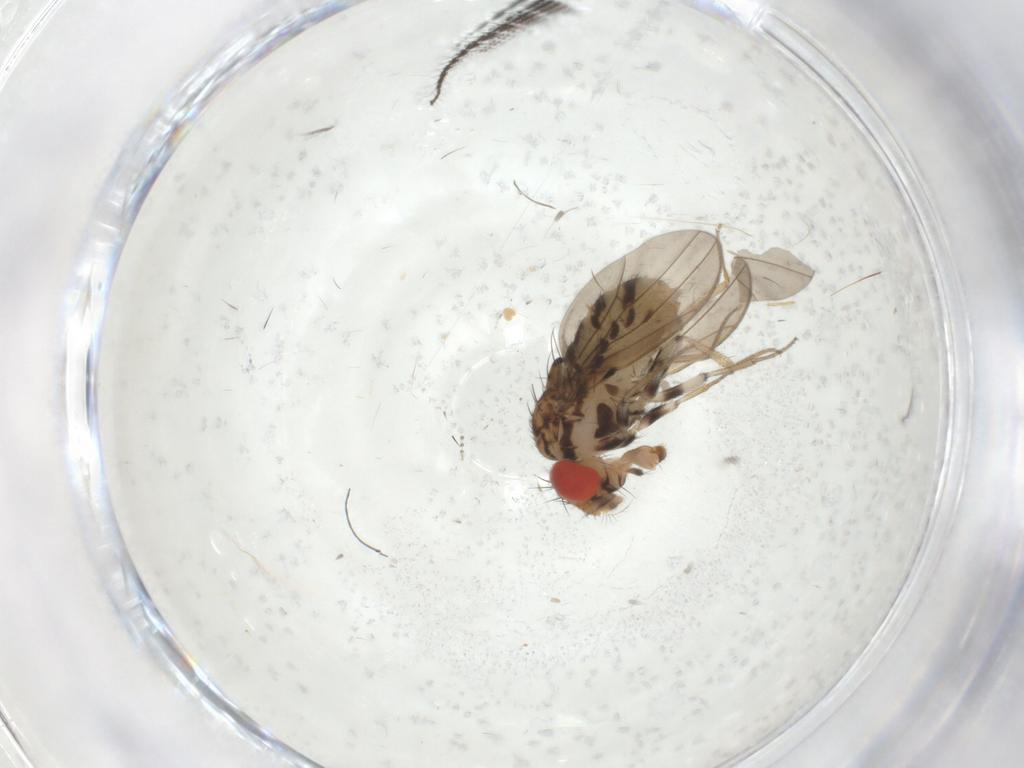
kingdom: Animalia
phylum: Arthropoda
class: Insecta
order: Diptera
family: Drosophilidae
